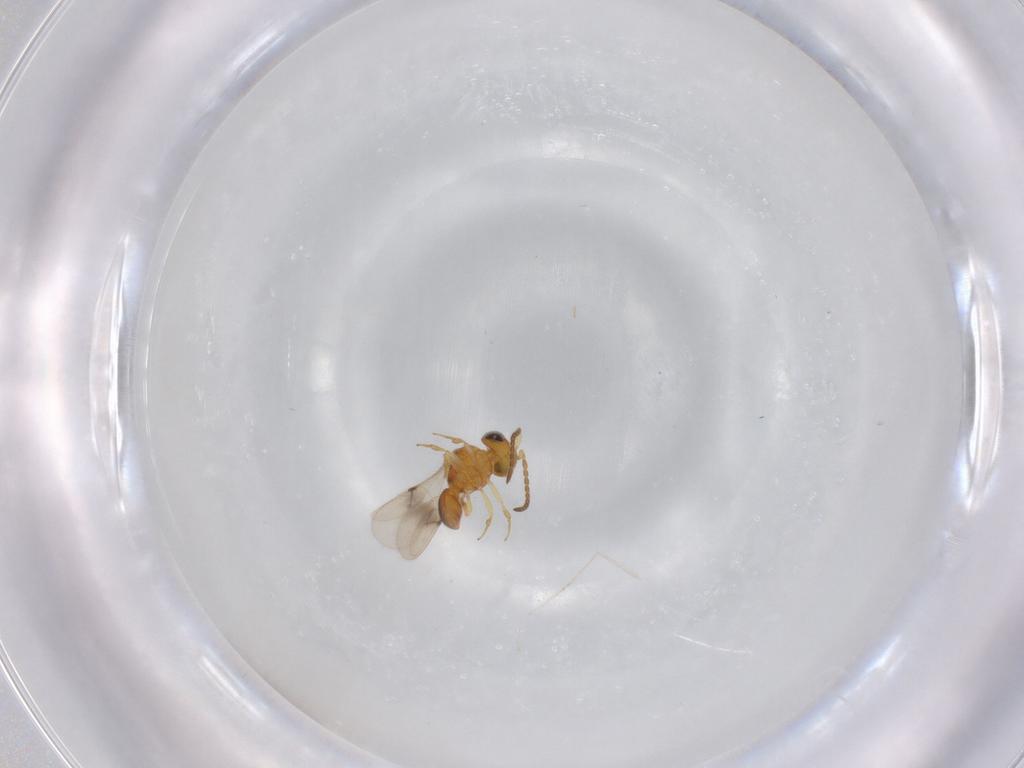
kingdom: Animalia
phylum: Arthropoda
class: Insecta
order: Hymenoptera
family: Scelionidae
